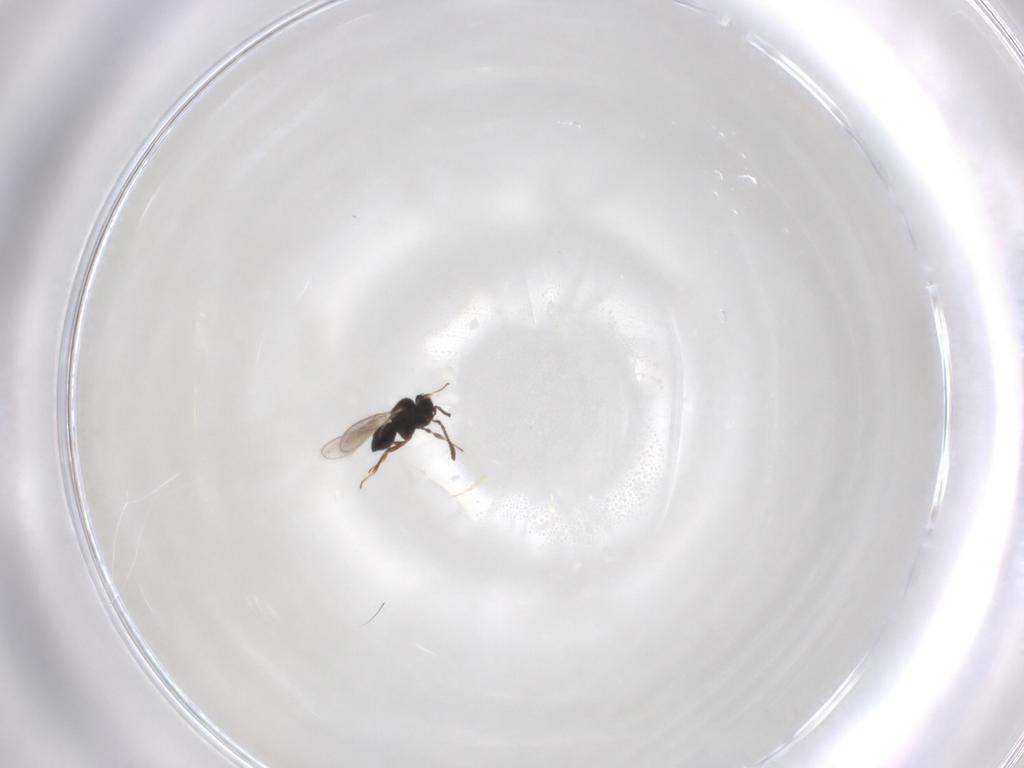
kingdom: Animalia
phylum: Arthropoda
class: Insecta
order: Hymenoptera
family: Scelionidae
